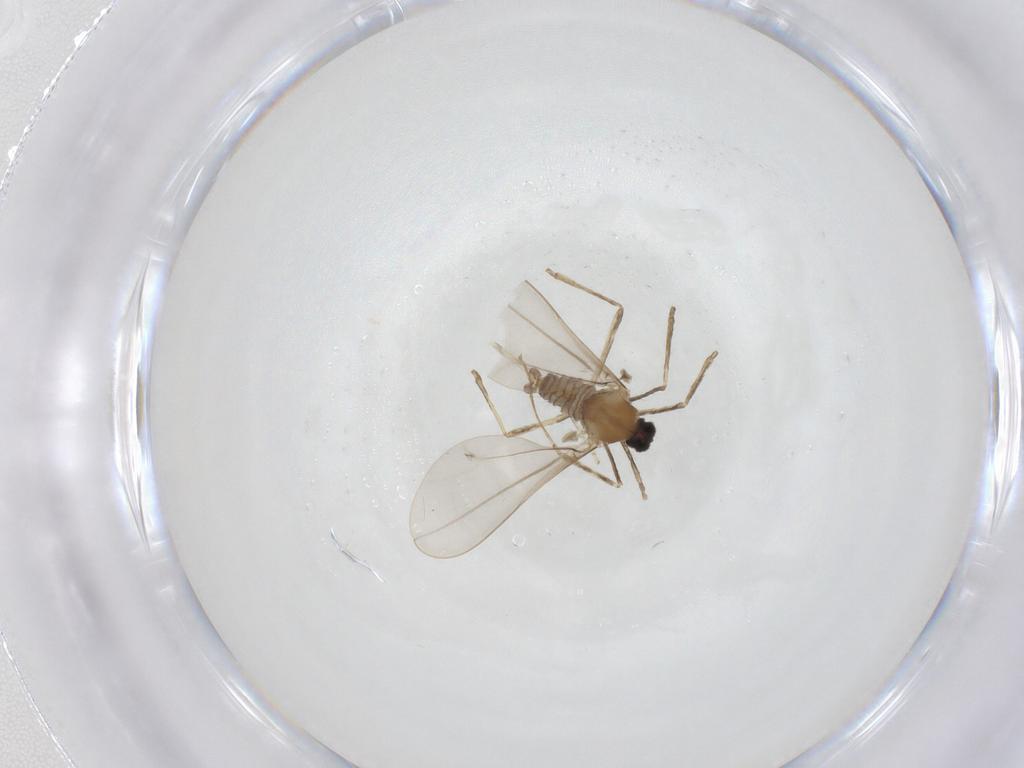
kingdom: Animalia
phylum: Arthropoda
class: Insecta
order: Diptera
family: Cecidomyiidae
